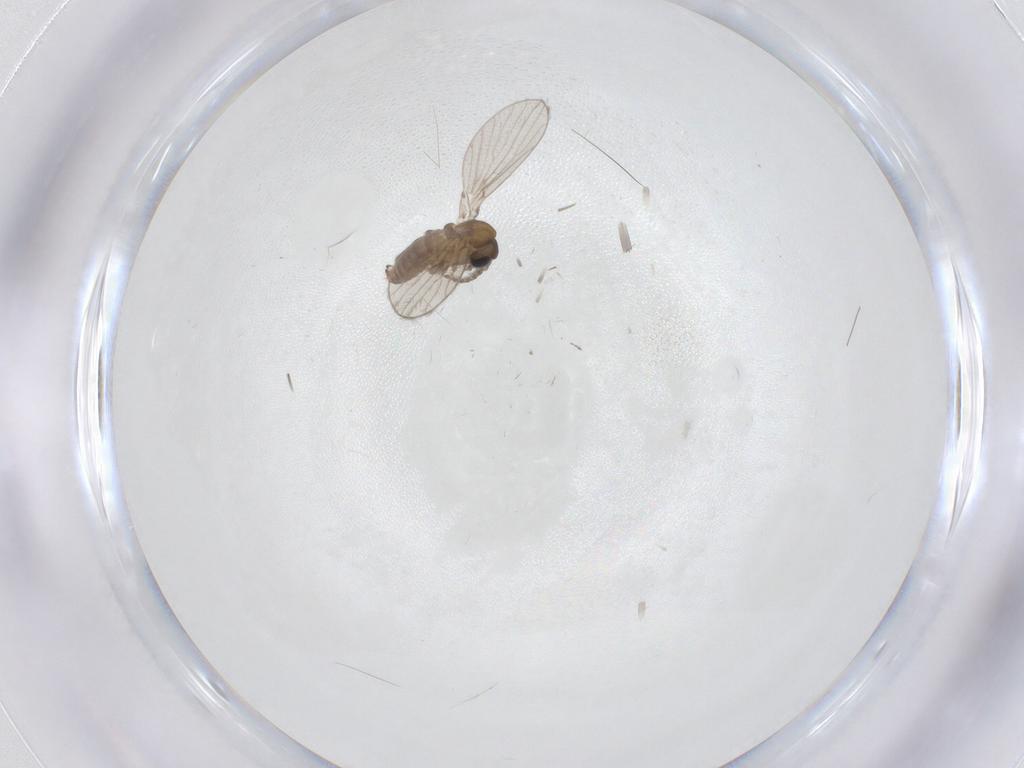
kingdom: Animalia
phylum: Arthropoda
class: Insecta
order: Diptera
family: Psychodidae
